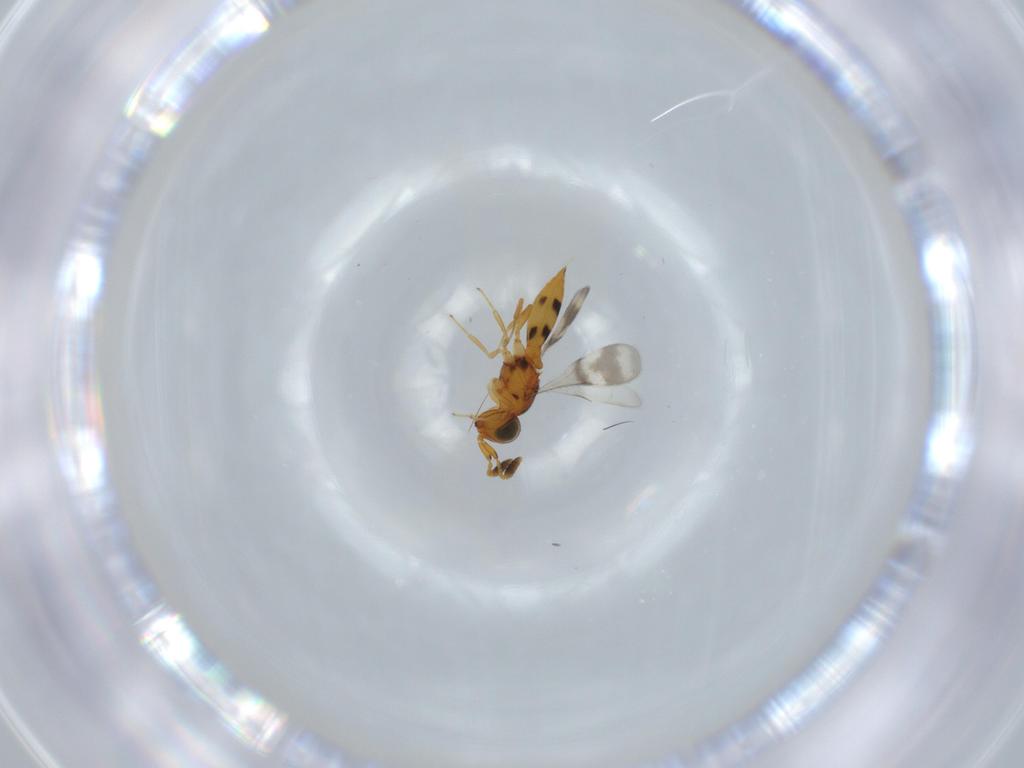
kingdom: Animalia
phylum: Arthropoda
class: Insecta
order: Hymenoptera
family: Scelionidae
